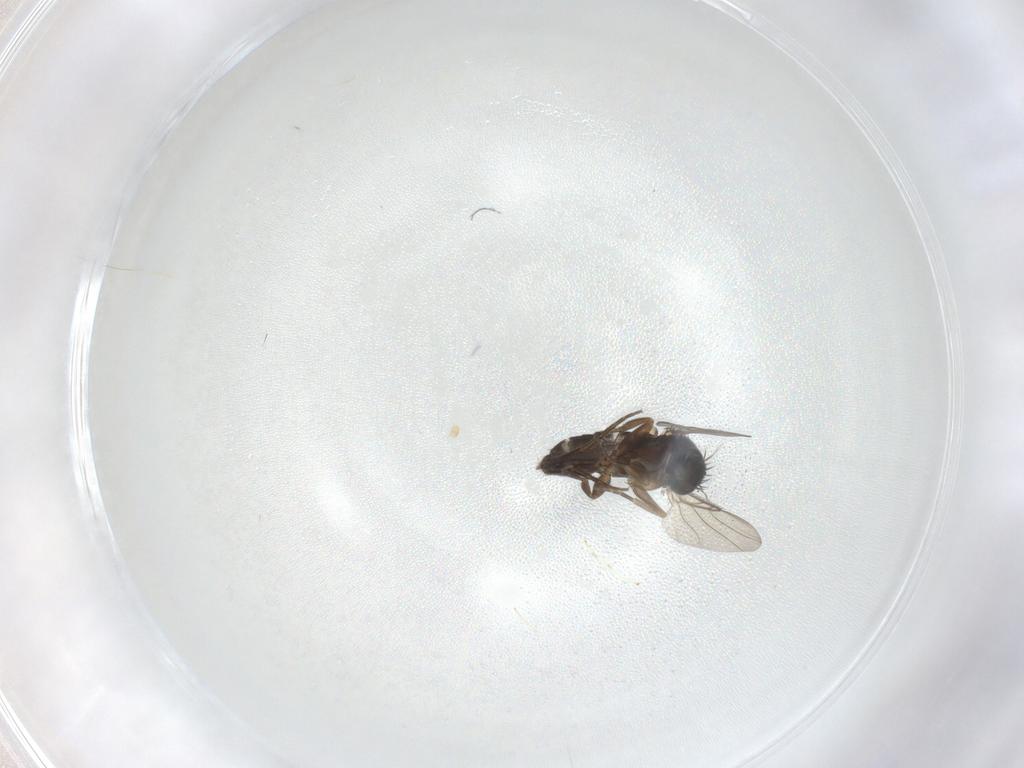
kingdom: Animalia
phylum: Arthropoda
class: Insecta
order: Diptera
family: Phoridae
